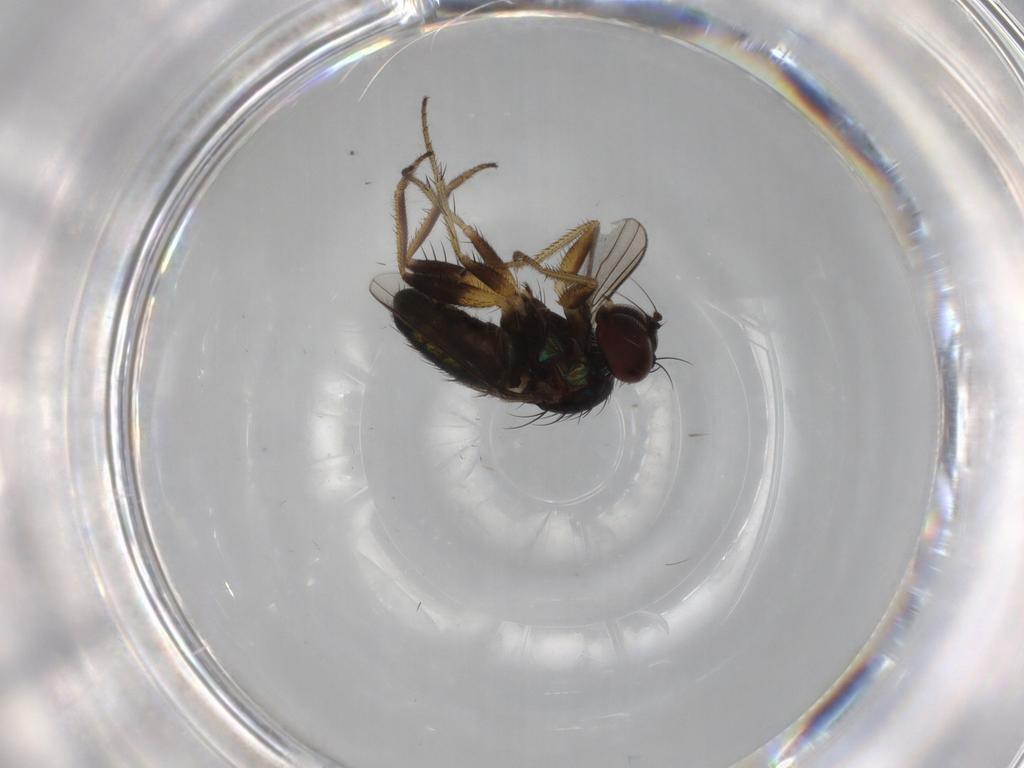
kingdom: Animalia
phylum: Arthropoda
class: Insecta
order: Diptera
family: Dolichopodidae
